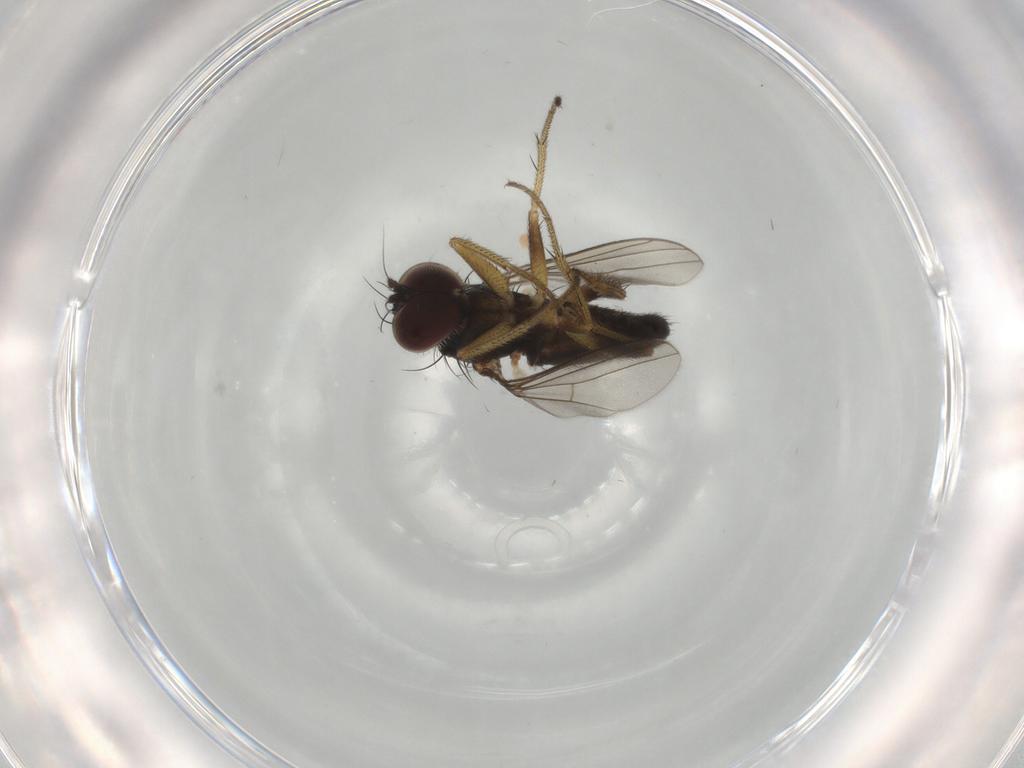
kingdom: Animalia
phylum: Arthropoda
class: Insecta
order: Diptera
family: Dolichopodidae
